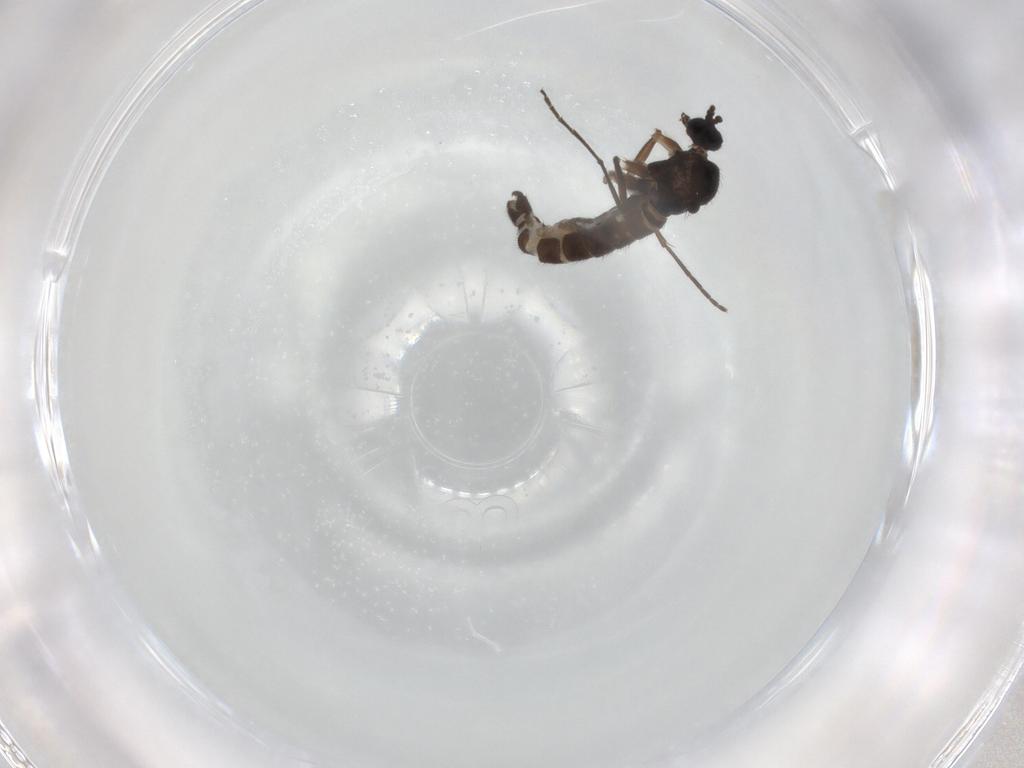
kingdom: Animalia
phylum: Arthropoda
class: Insecta
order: Diptera
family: Sciaridae
